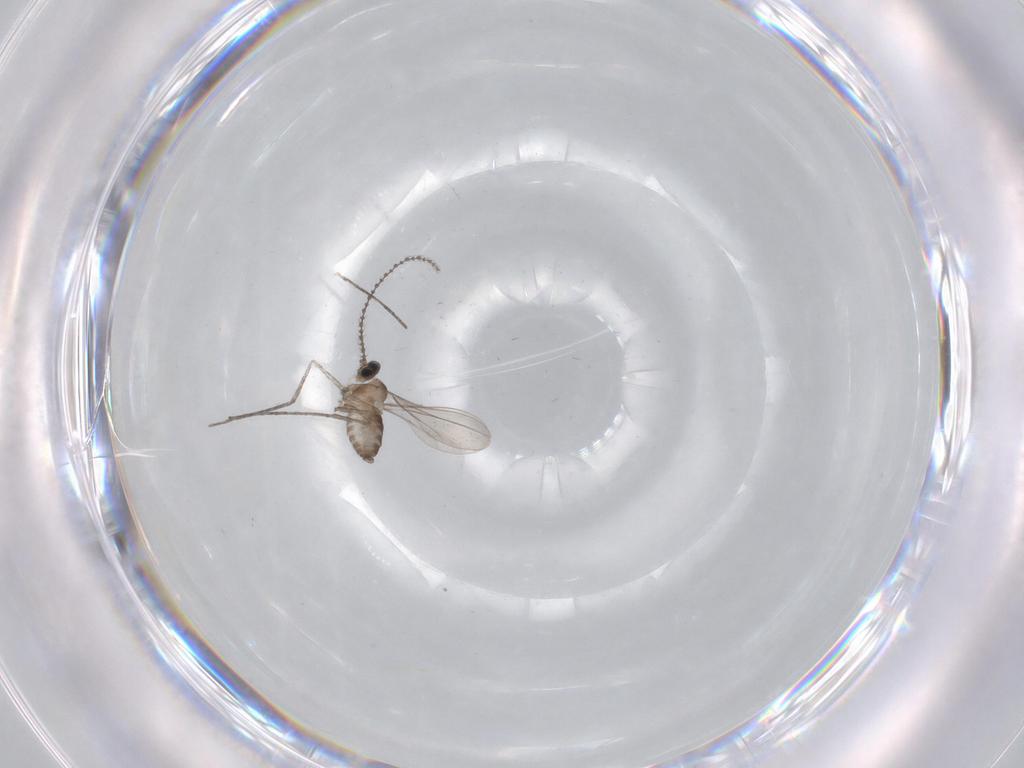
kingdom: Animalia
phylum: Arthropoda
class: Insecta
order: Diptera
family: Cecidomyiidae
